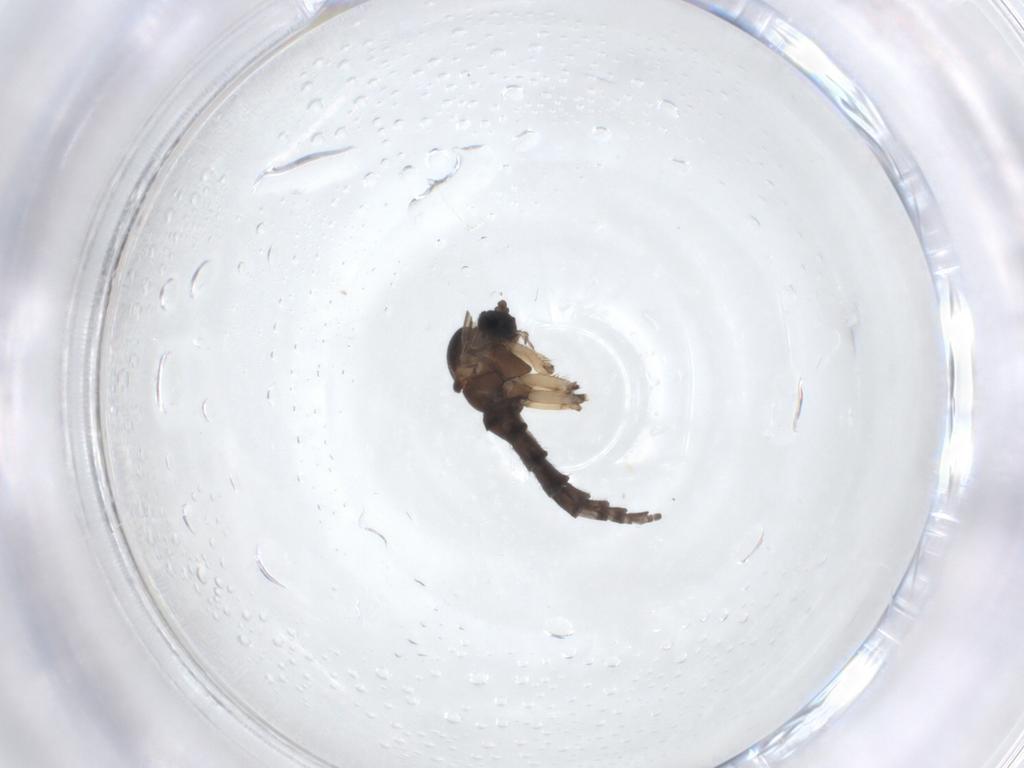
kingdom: Animalia
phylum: Arthropoda
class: Insecta
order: Diptera
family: Sciaridae
